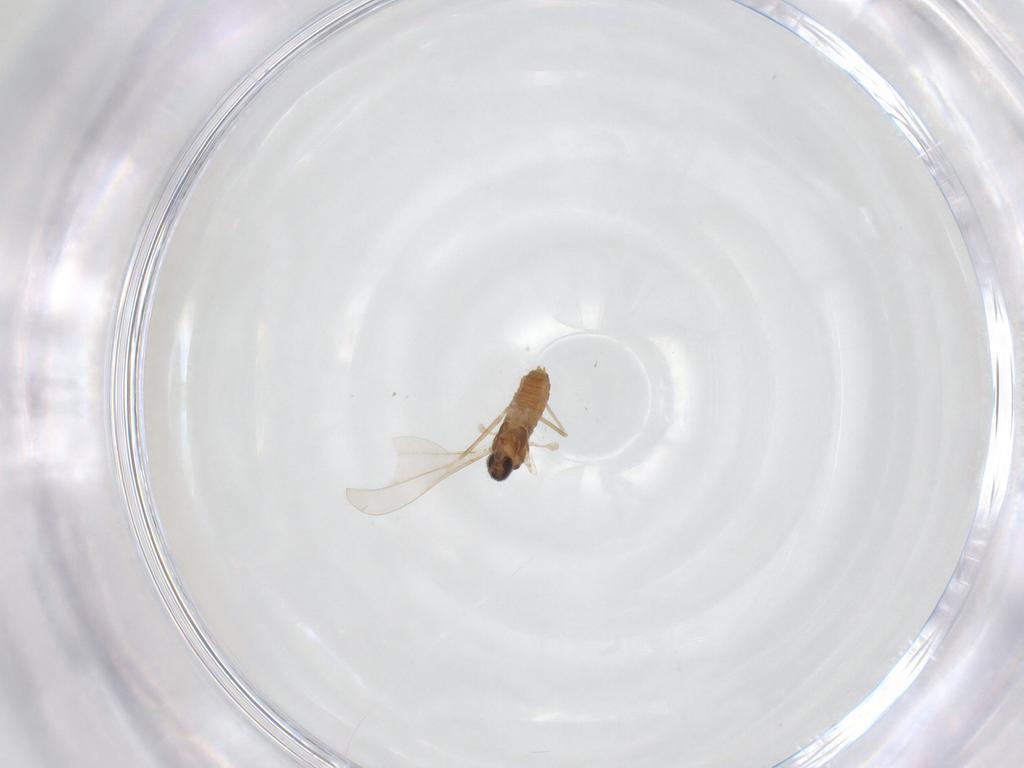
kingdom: Animalia
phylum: Arthropoda
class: Insecta
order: Diptera
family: Cecidomyiidae
